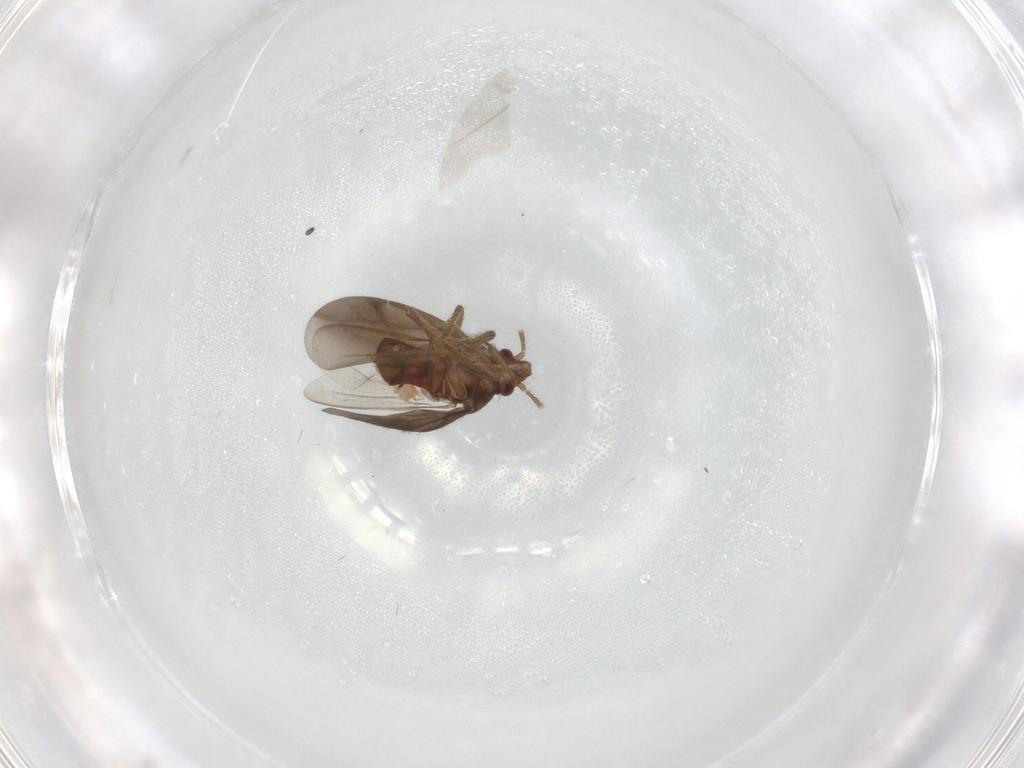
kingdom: Animalia
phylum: Arthropoda
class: Insecta
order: Hemiptera
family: Ceratocombidae
